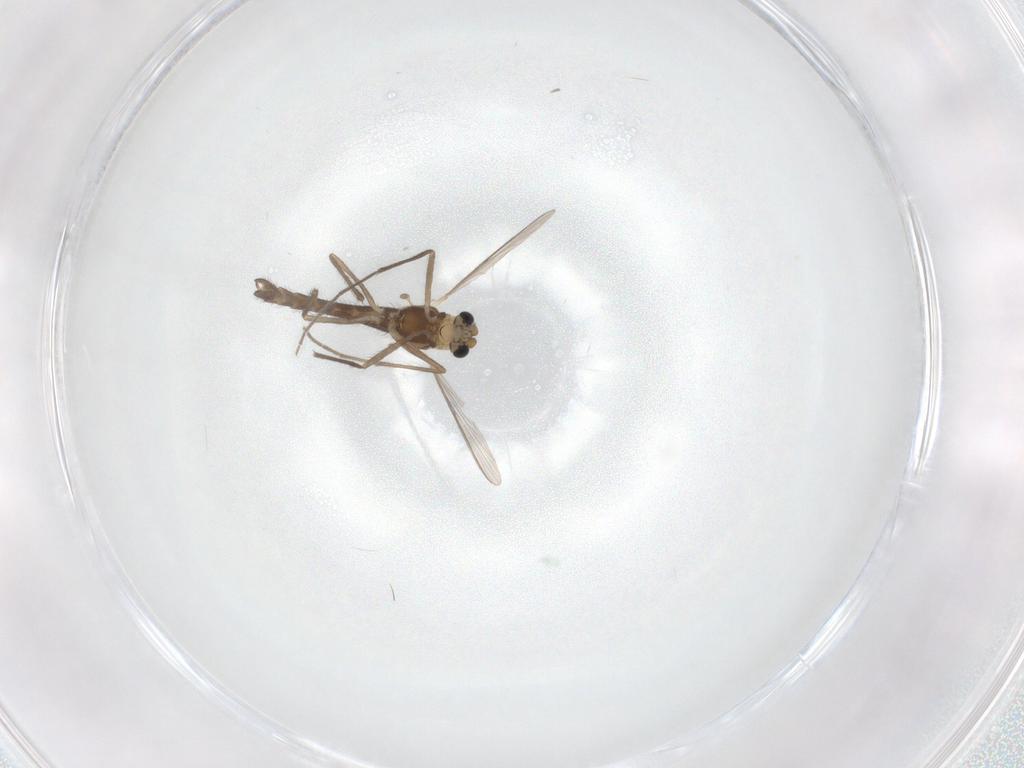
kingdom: Animalia
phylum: Arthropoda
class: Insecta
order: Diptera
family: Chironomidae
